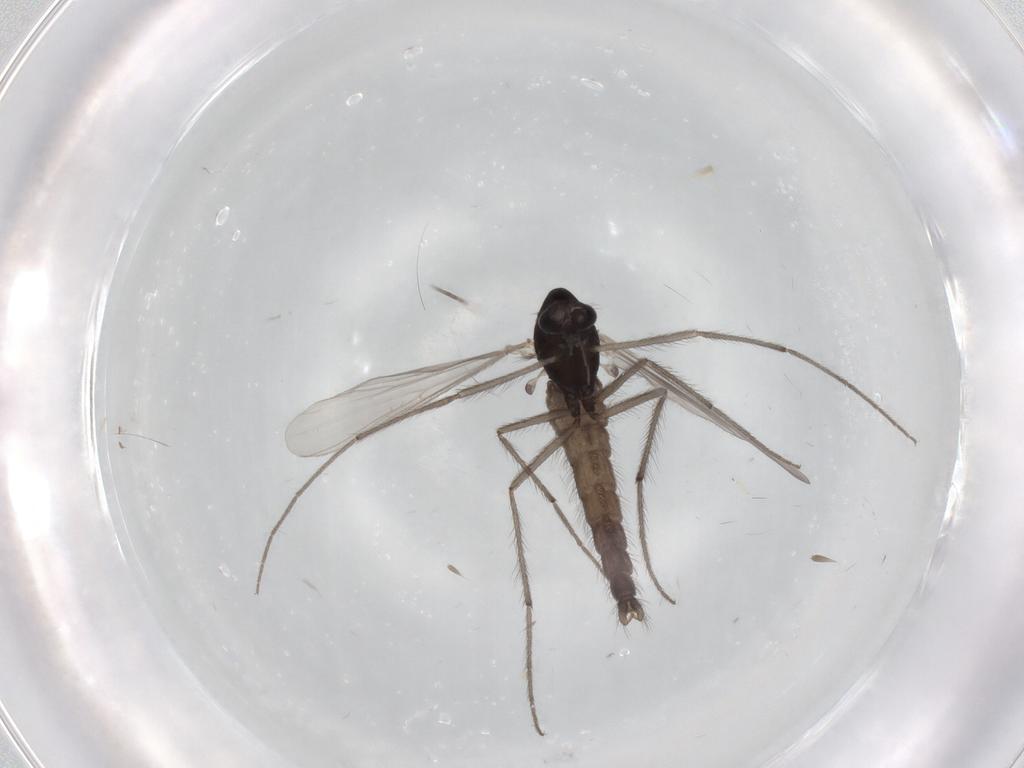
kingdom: Animalia
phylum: Arthropoda
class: Insecta
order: Diptera
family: Chironomidae
